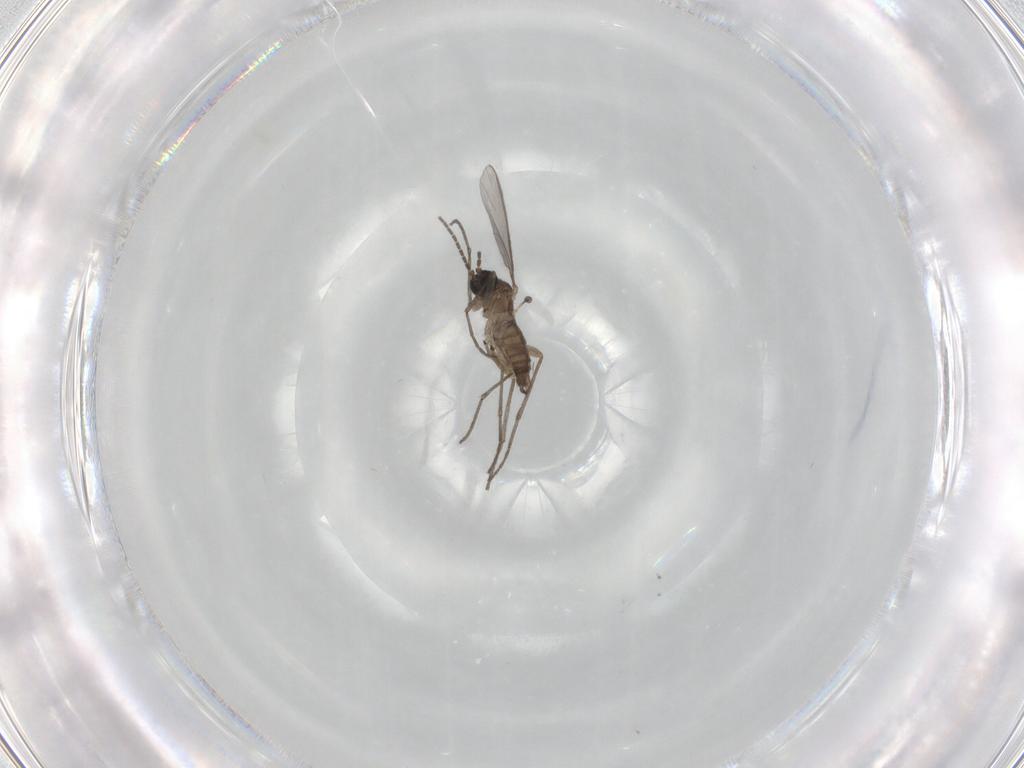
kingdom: Animalia
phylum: Arthropoda
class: Insecta
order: Diptera
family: Sciaridae
